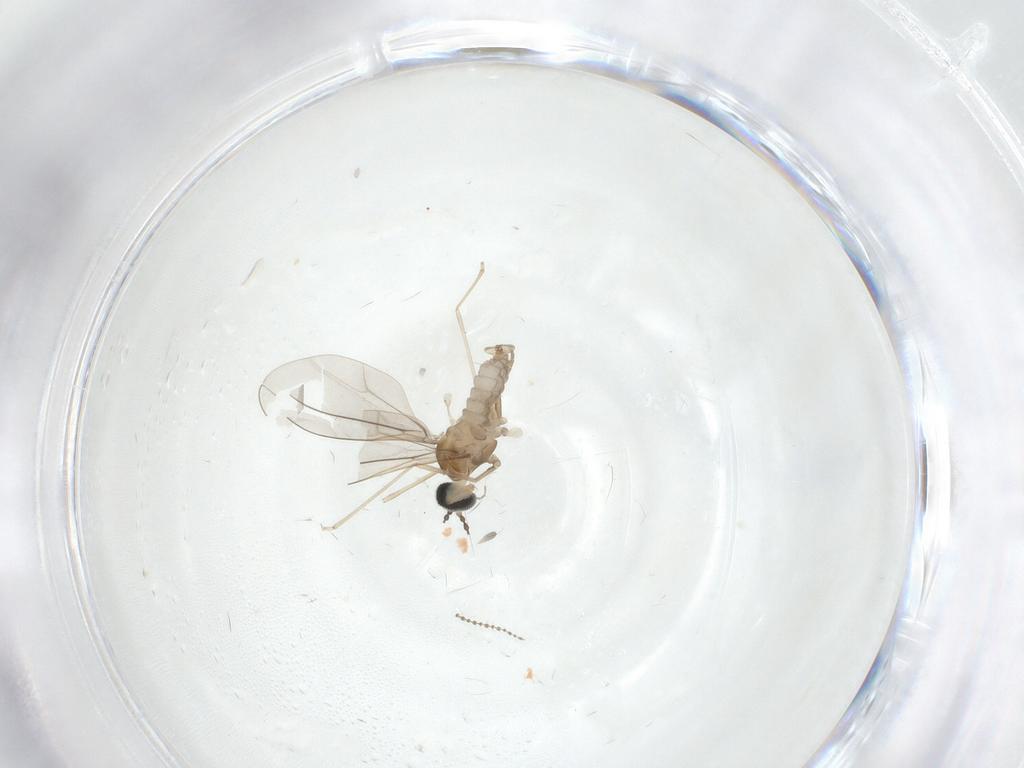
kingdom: Animalia
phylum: Arthropoda
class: Insecta
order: Diptera
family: Cecidomyiidae
